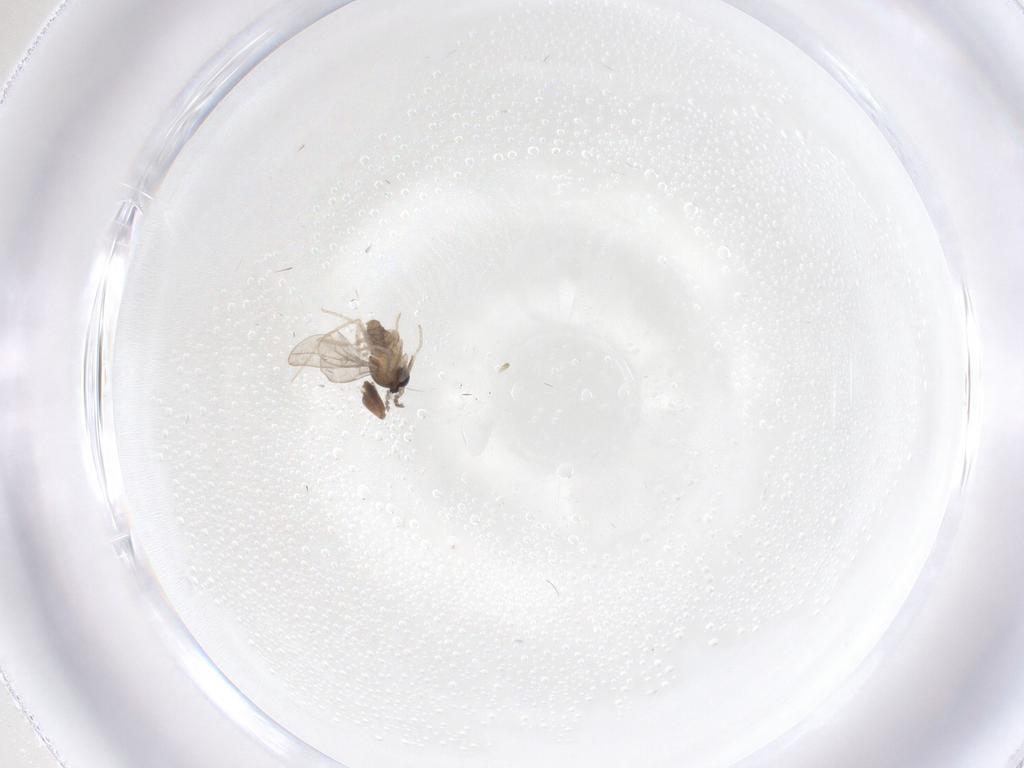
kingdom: Animalia
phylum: Arthropoda
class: Insecta
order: Diptera
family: Cecidomyiidae
